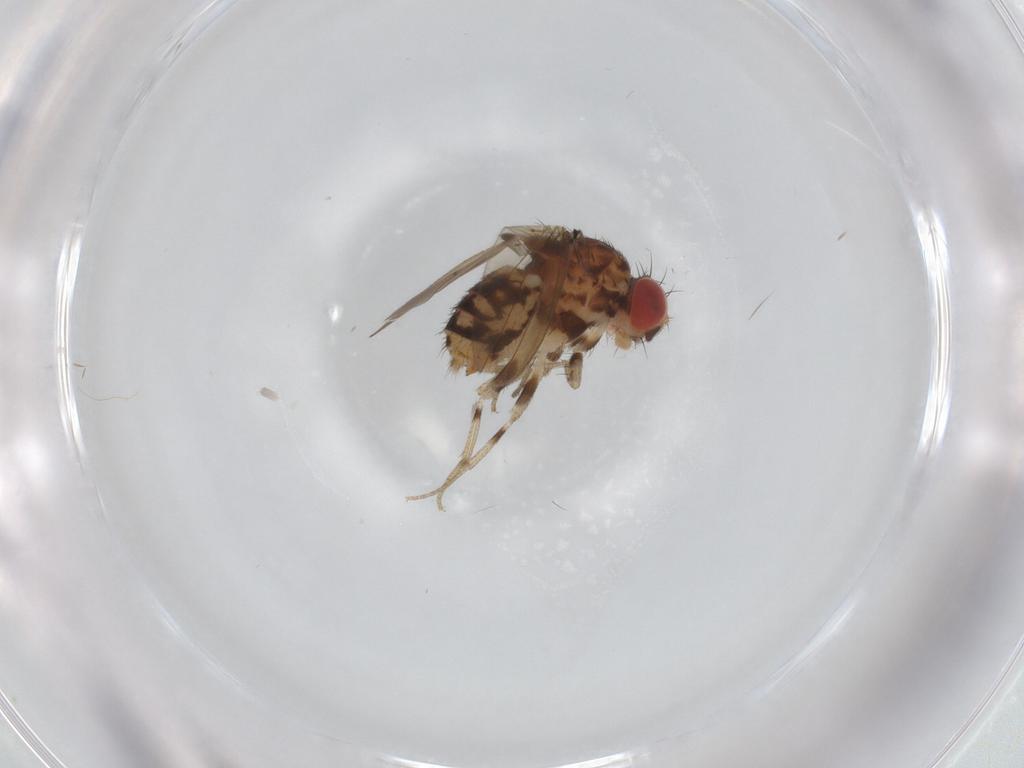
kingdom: Animalia
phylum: Arthropoda
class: Insecta
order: Diptera
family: Drosophilidae
